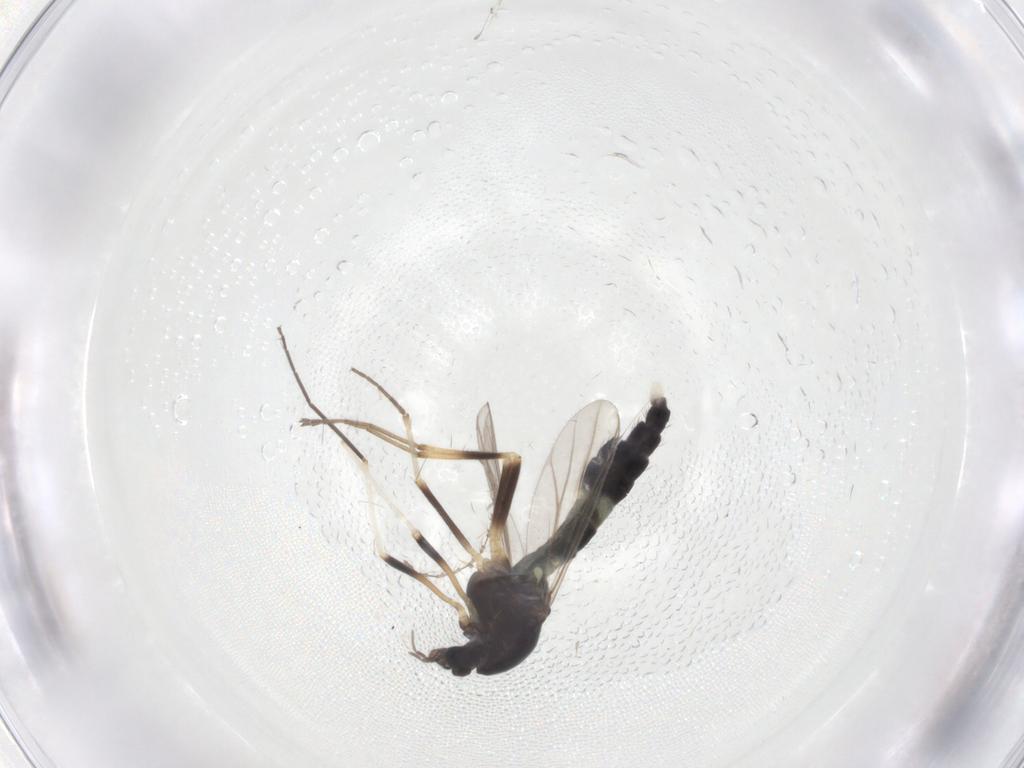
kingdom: Animalia
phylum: Arthropoda
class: Insecta
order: Diptera
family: Chironomidae
